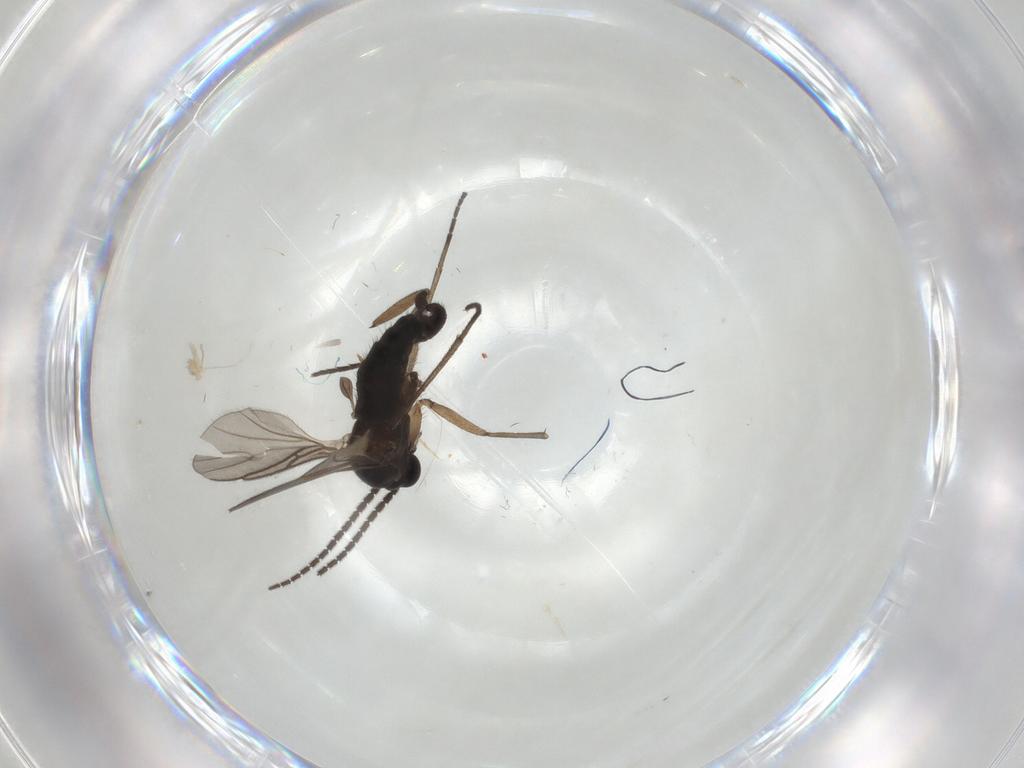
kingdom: Animalia
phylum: Arthropoda
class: Insecta
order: Diptera
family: Sciaridae
